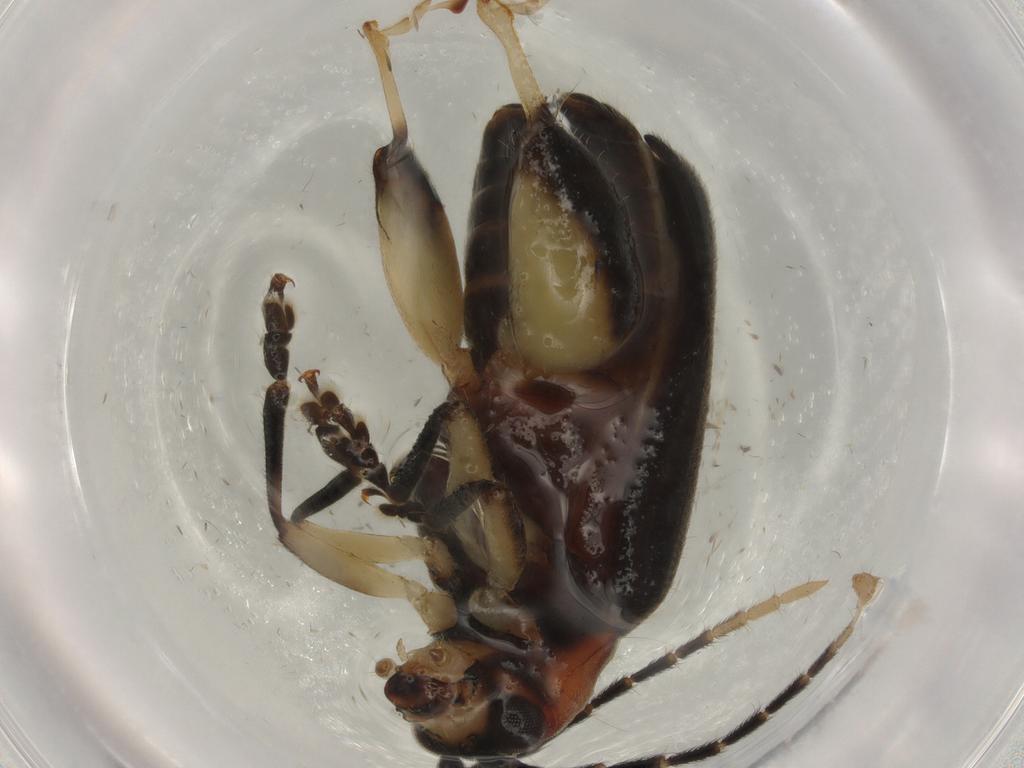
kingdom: Animalia
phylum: Arthropoda
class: Insecta
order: Coleoptera
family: Chrysomelidae
